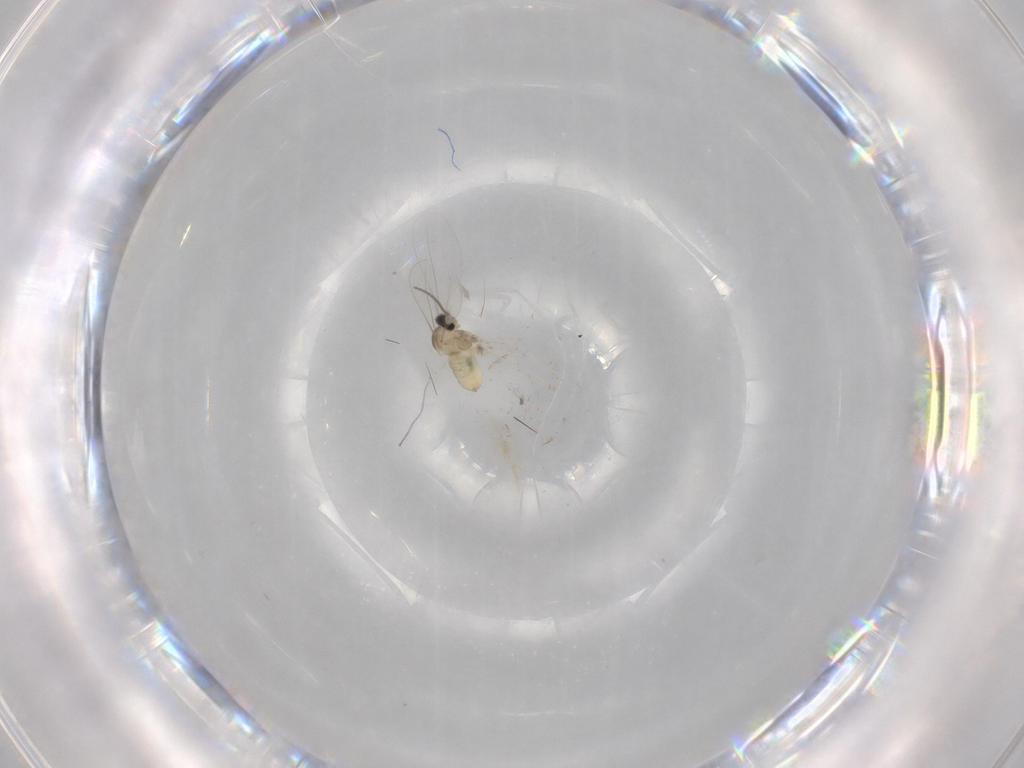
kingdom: Animalia
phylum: Arthropoda
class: Insecta
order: Diptera
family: Cecidomyiidae
